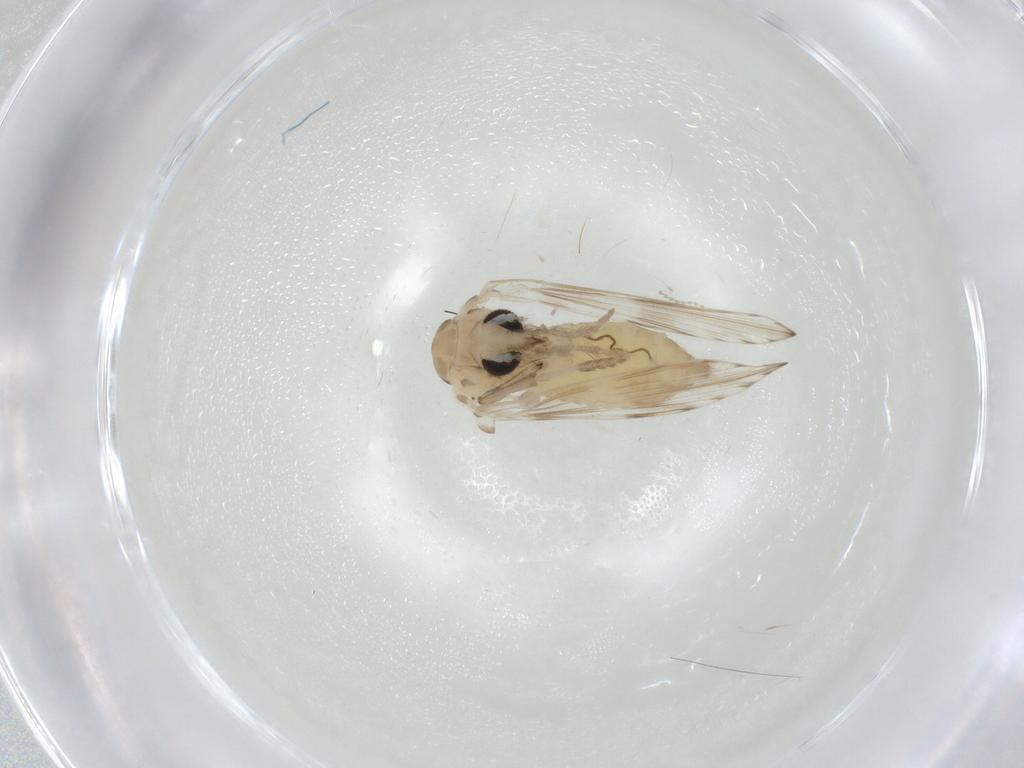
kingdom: Animalia
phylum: Arthropoda
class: Insecta
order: Diptera
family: Psychodidae
